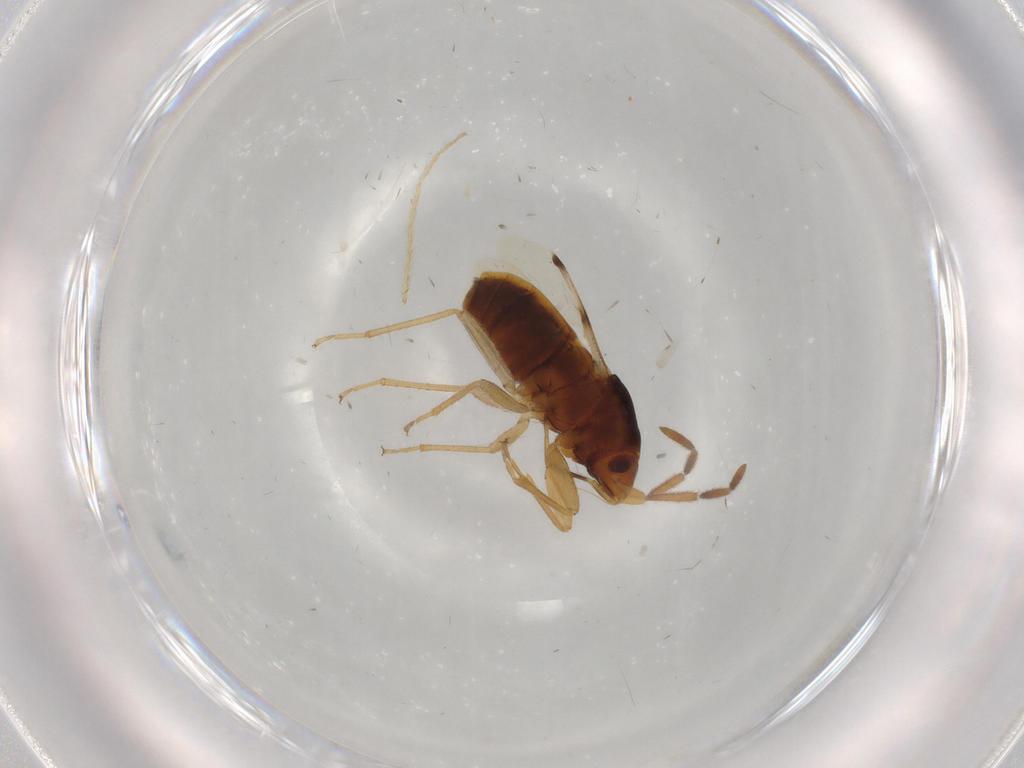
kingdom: Animalia
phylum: Arthropoda
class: Insecta
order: Hemiptera
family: Rhyparochromidae
